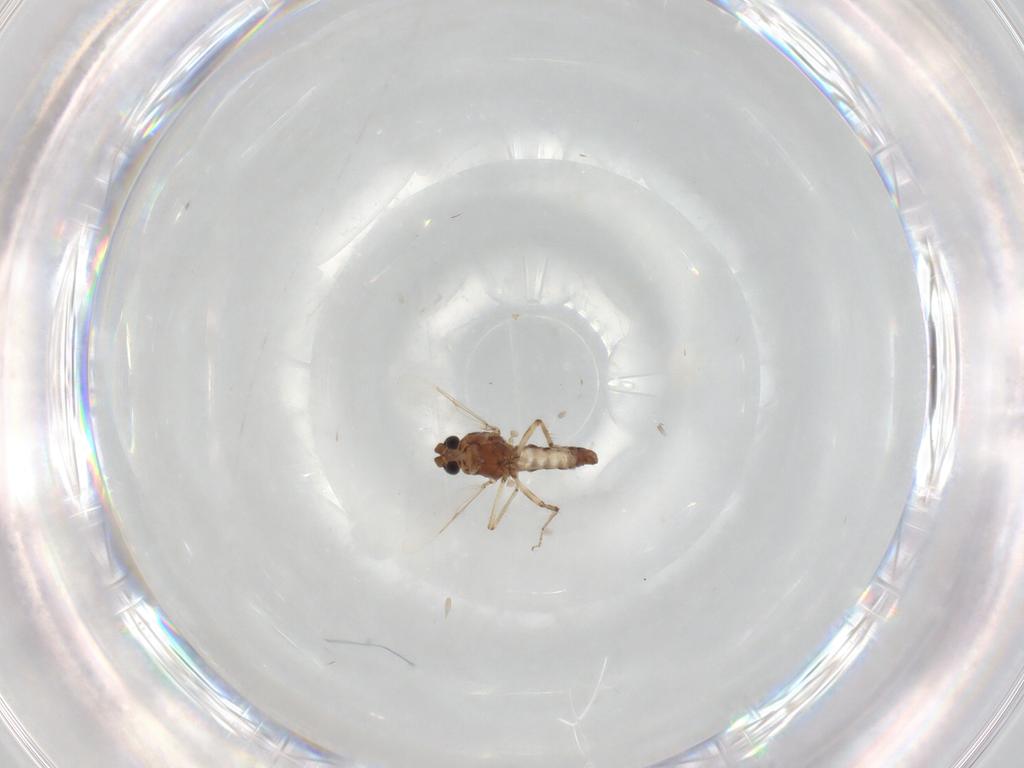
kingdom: Animalia
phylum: Arthropoda
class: Insecta
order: Diptera
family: Ceratopogonidae
